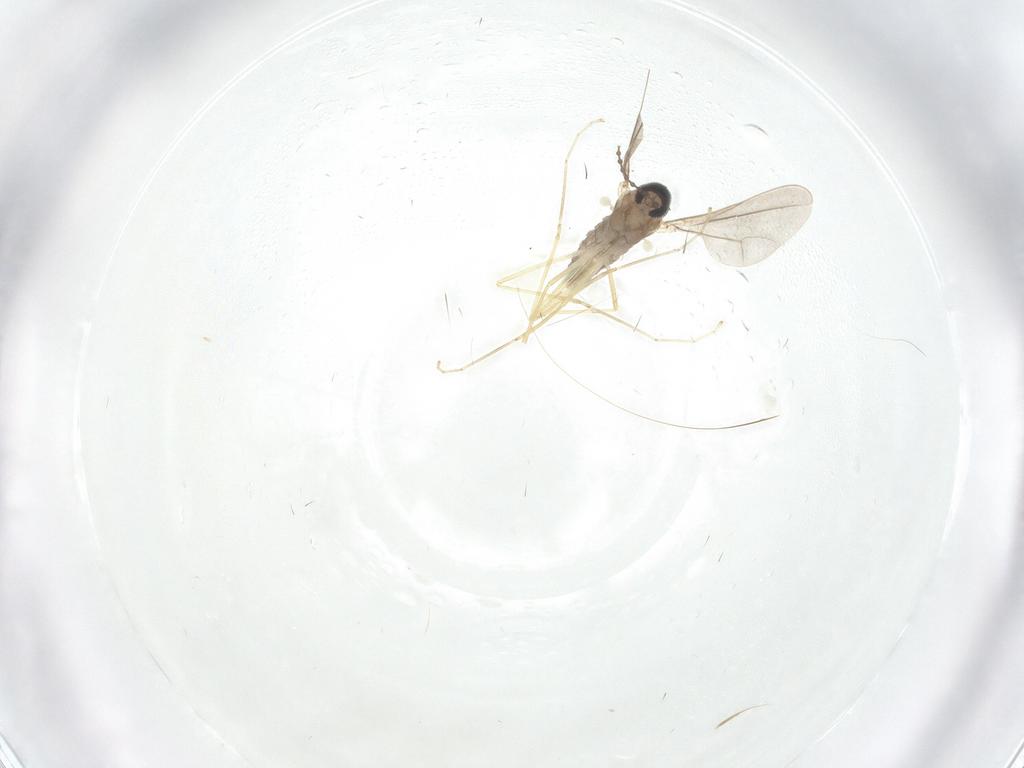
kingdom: Animalia
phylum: Arthropoda
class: Insecta
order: Diptera
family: Cecidomyiidae
